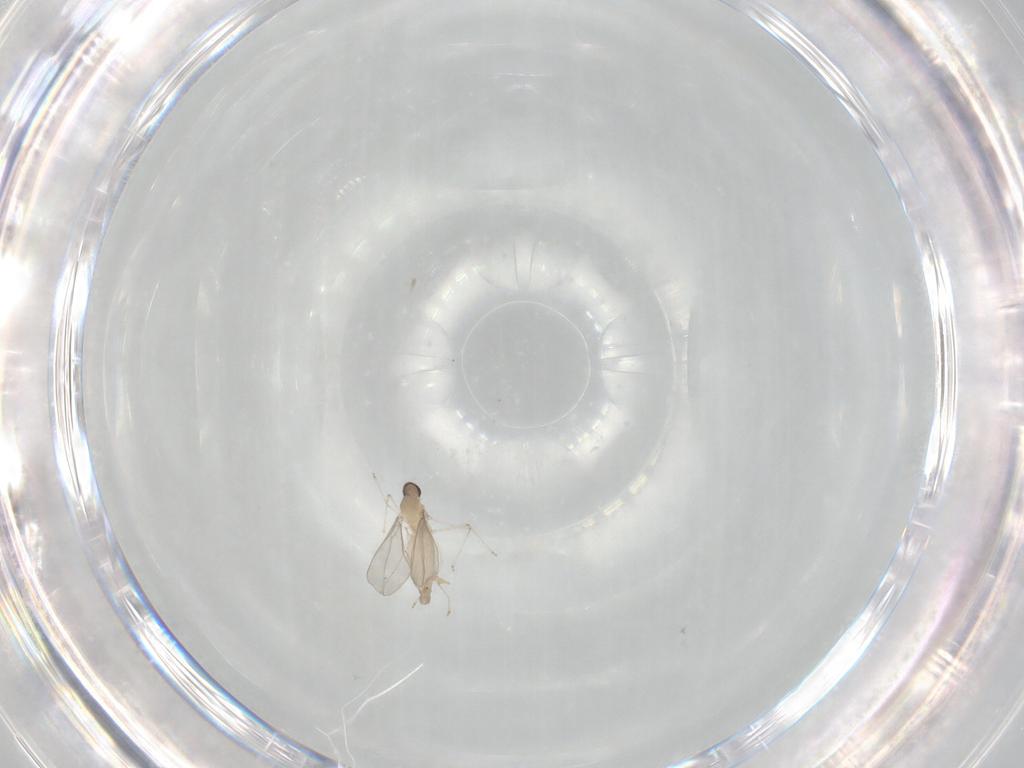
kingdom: Animalia
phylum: Arthropoda
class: Insecta
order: Diptera
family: Cecidomyiidae
